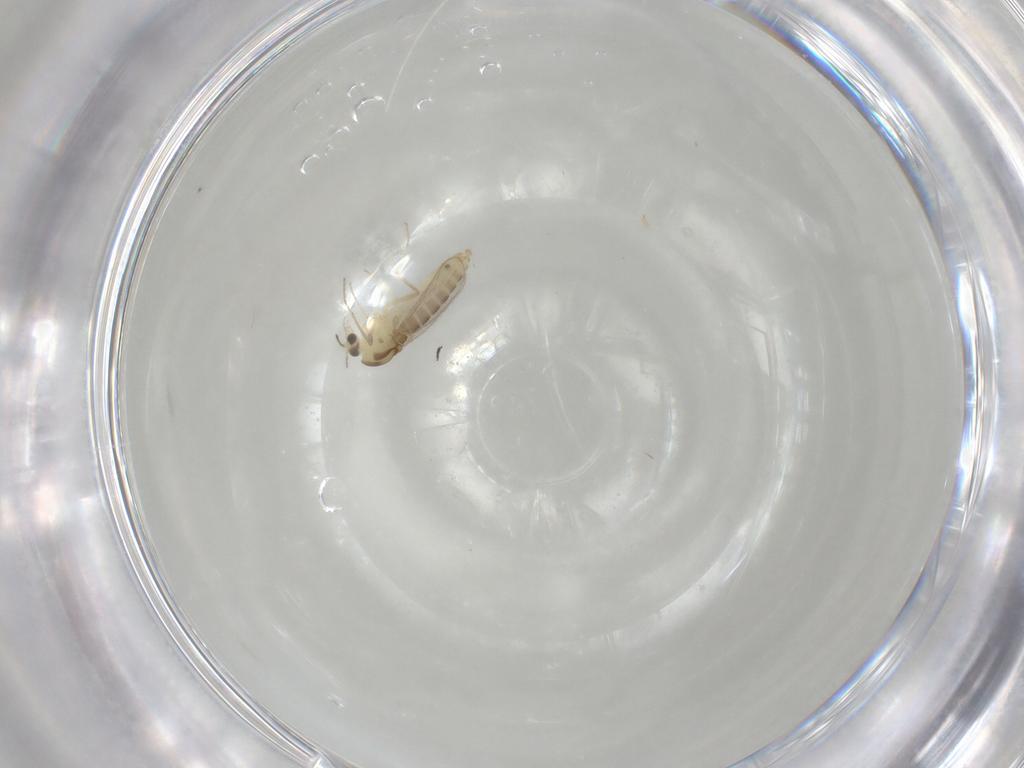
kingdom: Animalia
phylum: Arthropoda
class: Insecta
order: Diptera
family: Chironomidae
